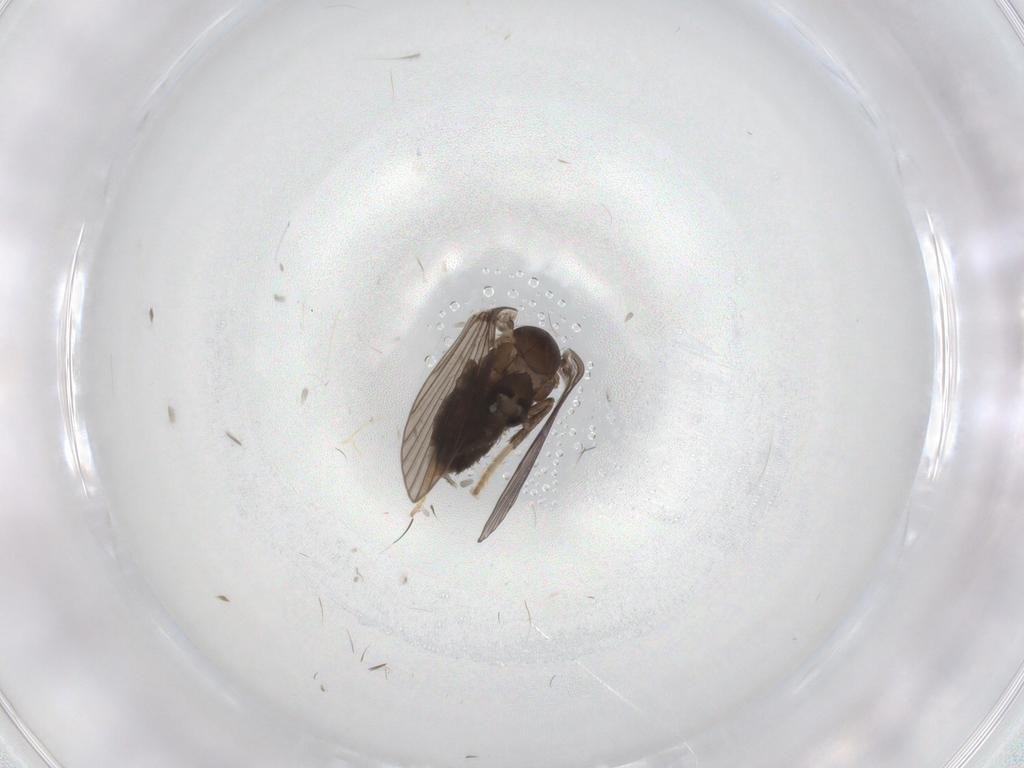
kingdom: Animalia
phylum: Arthropoda
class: Insecta
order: Diptera
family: Psychodidae
